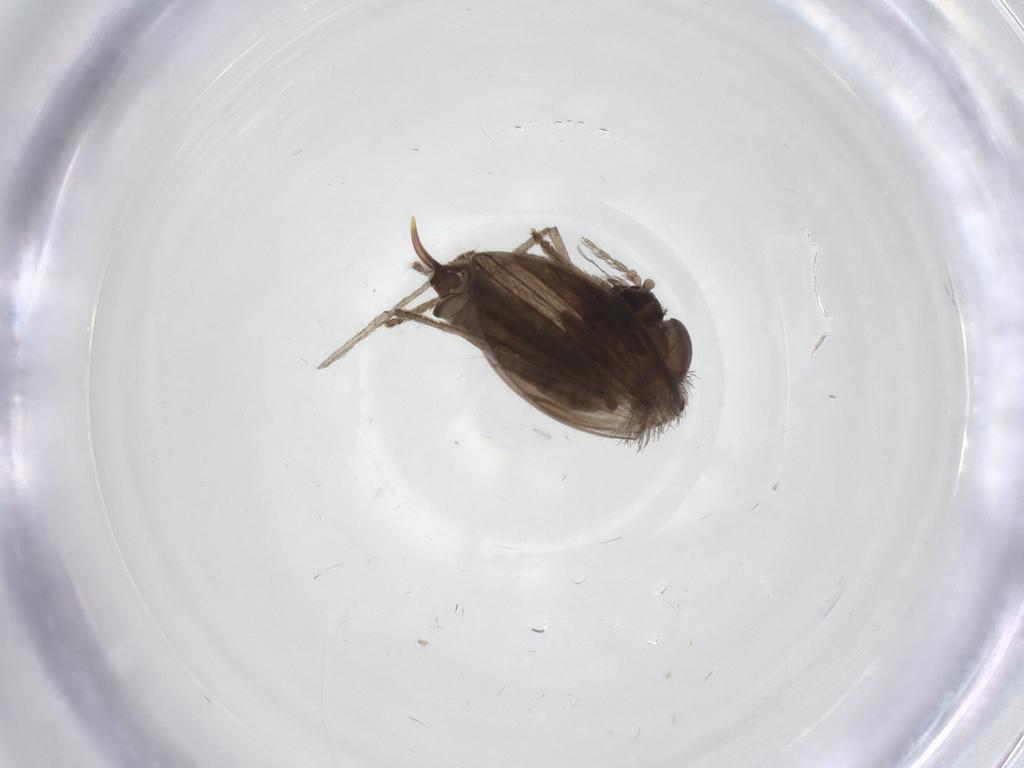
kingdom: Animalia
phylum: Arthropoda
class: Insecta
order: Diptera
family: Psychodidae
